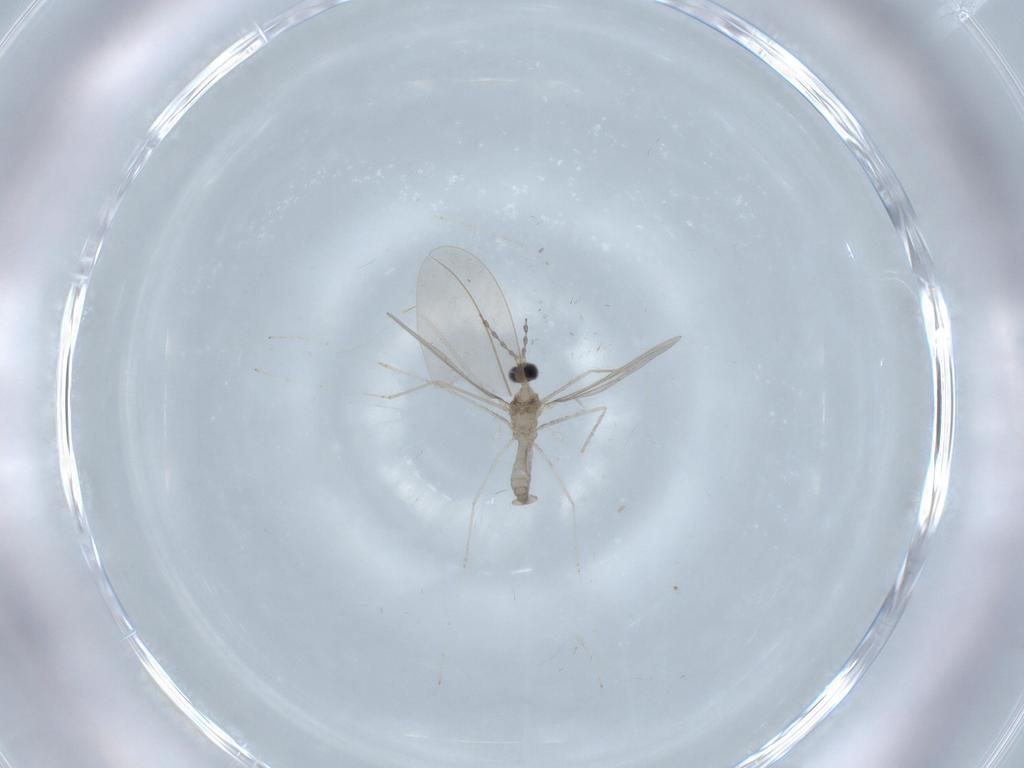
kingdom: Animalia
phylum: Arthropoda
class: Insecta
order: Diptera
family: Cecidomyiidae
